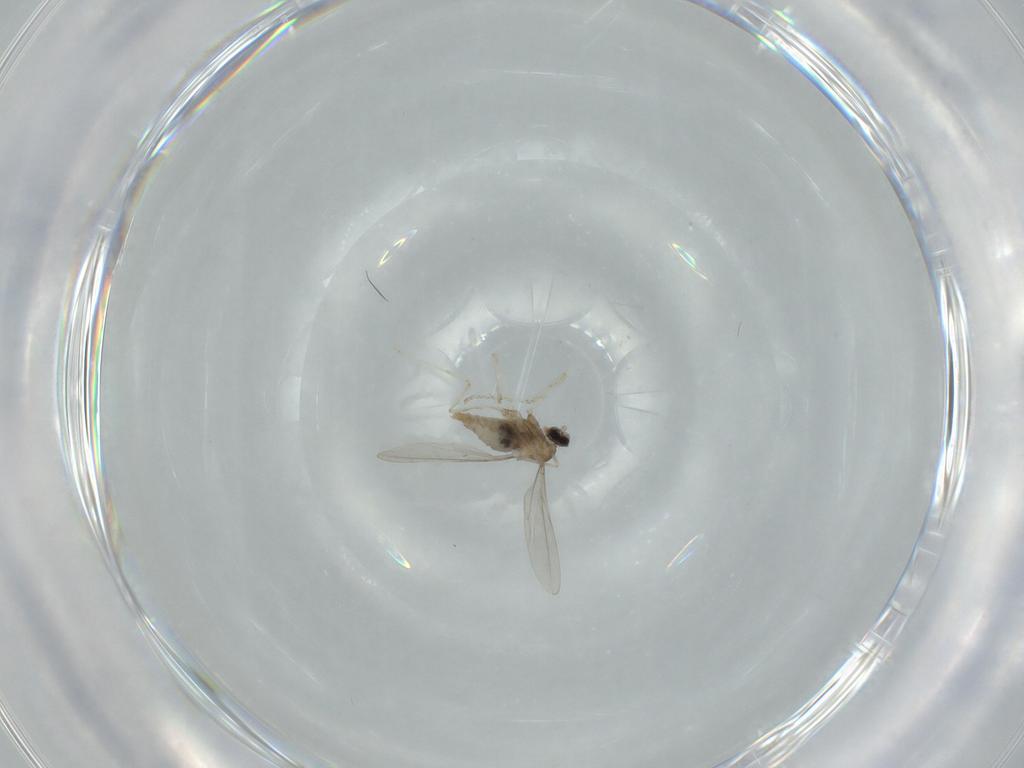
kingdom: Animalia
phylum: Arthropoda
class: Insecta
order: Diptera
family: Cecidomyiidae
